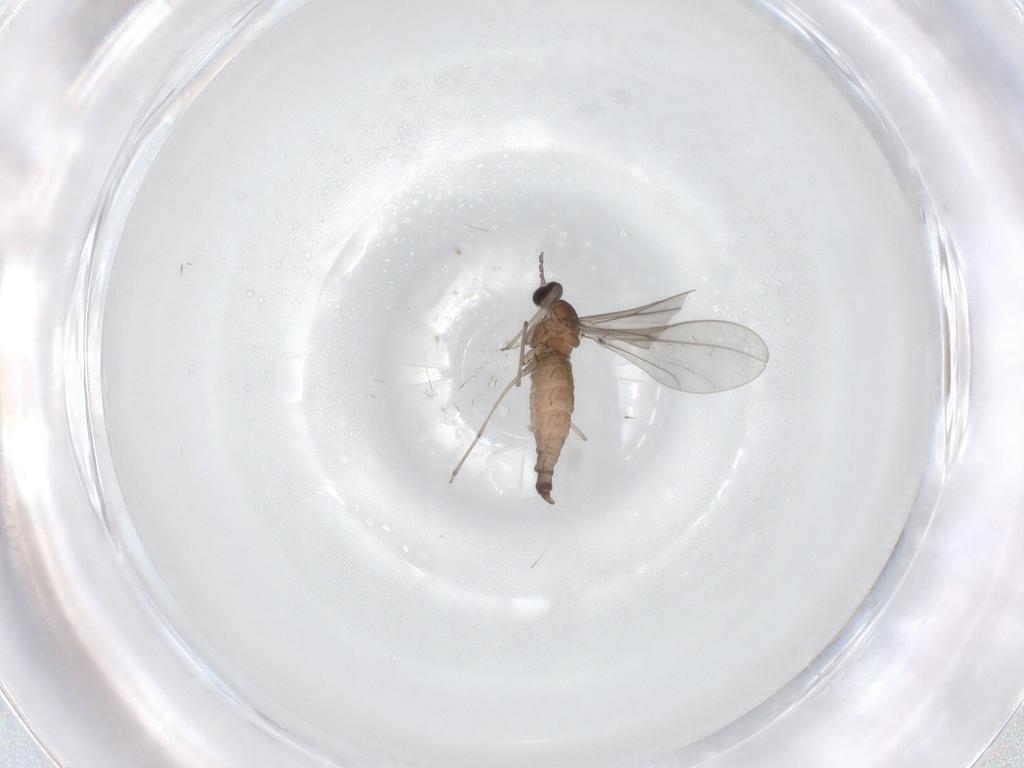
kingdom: Animalia
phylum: Arthropoda
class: Insecta
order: Diptera
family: Cecidomyiidae
